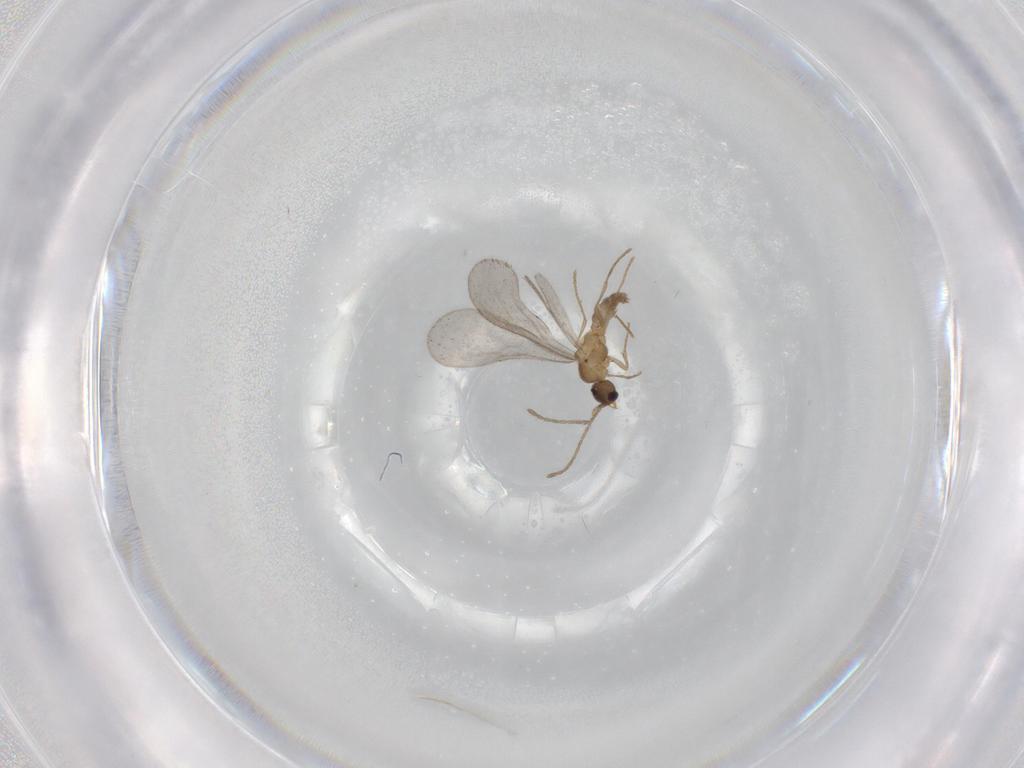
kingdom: Animalia
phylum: Arthropoda
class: Insecta
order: Hymenoptera
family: Formicidae
